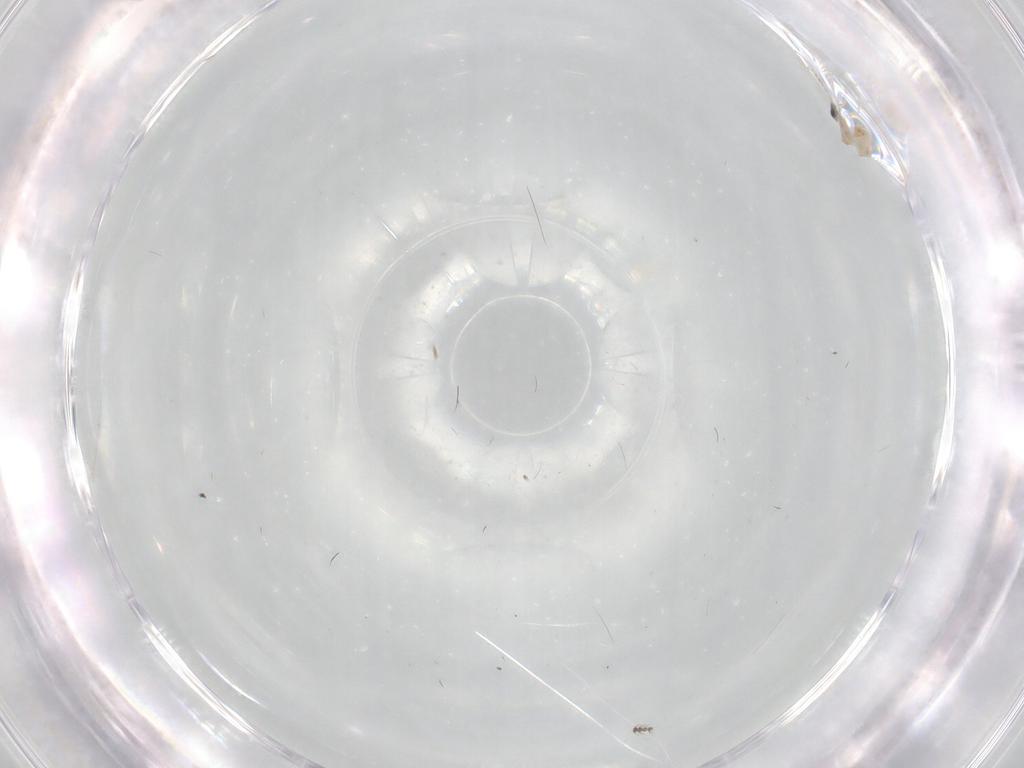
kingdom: Animalia
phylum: Arthropoda
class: Insecta
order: Diptera
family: Cecidomyiidae
